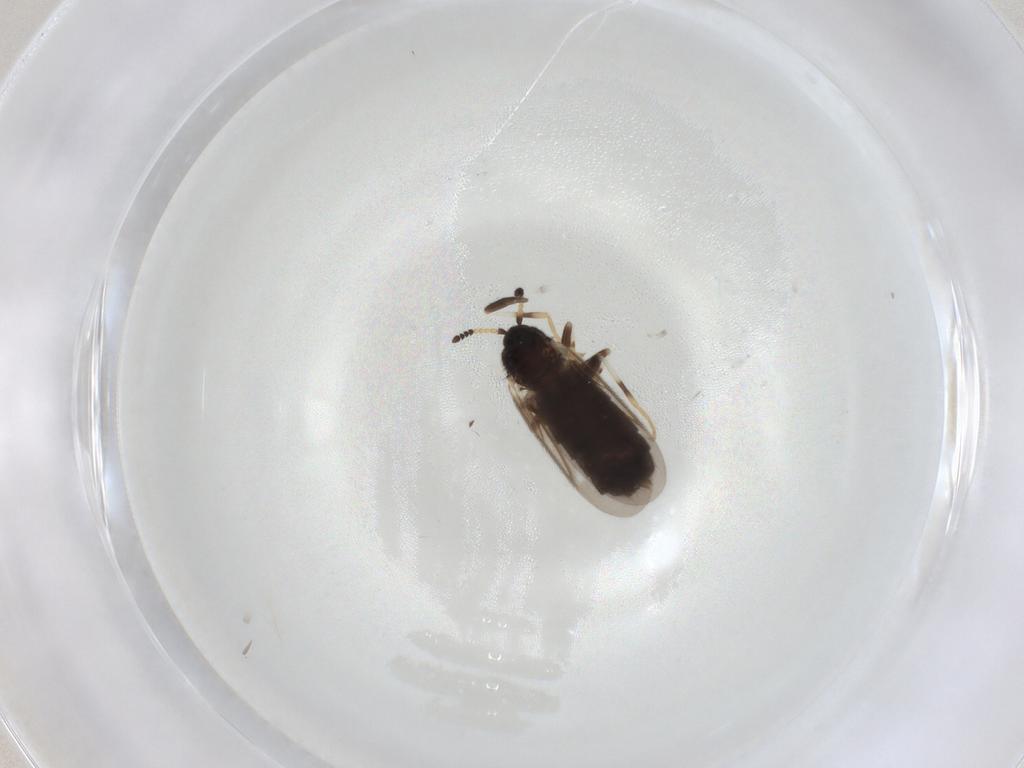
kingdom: Animalia
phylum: Arthropoda
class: Insecta
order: Diptera
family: Scatopsidae
